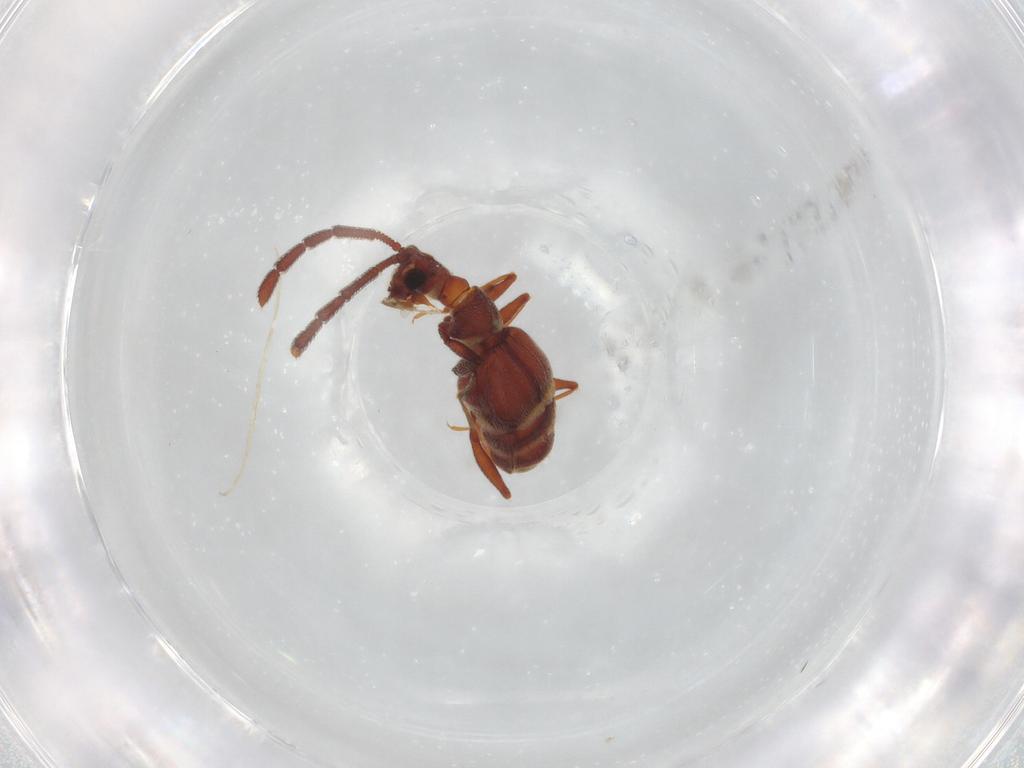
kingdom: Animalia
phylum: Arthropoda
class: Insecta
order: Coleoptera
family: Staphylinidae
